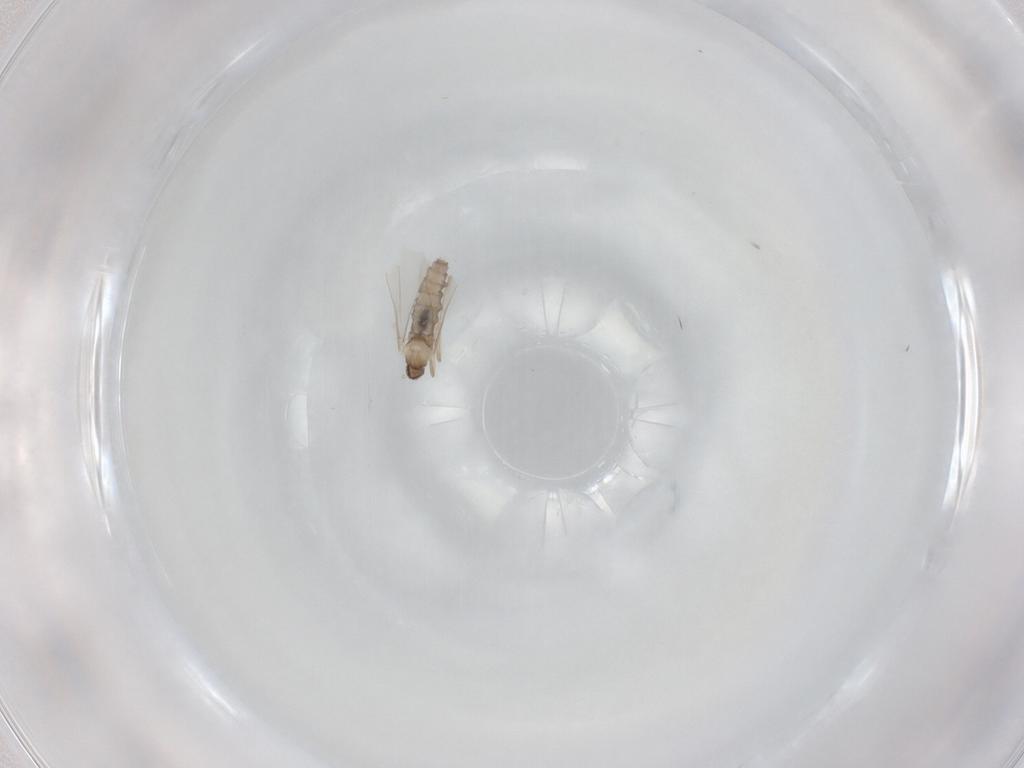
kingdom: Animalia
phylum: Arthropoda
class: Insecta
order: Diptera
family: Cecidomyiidae
